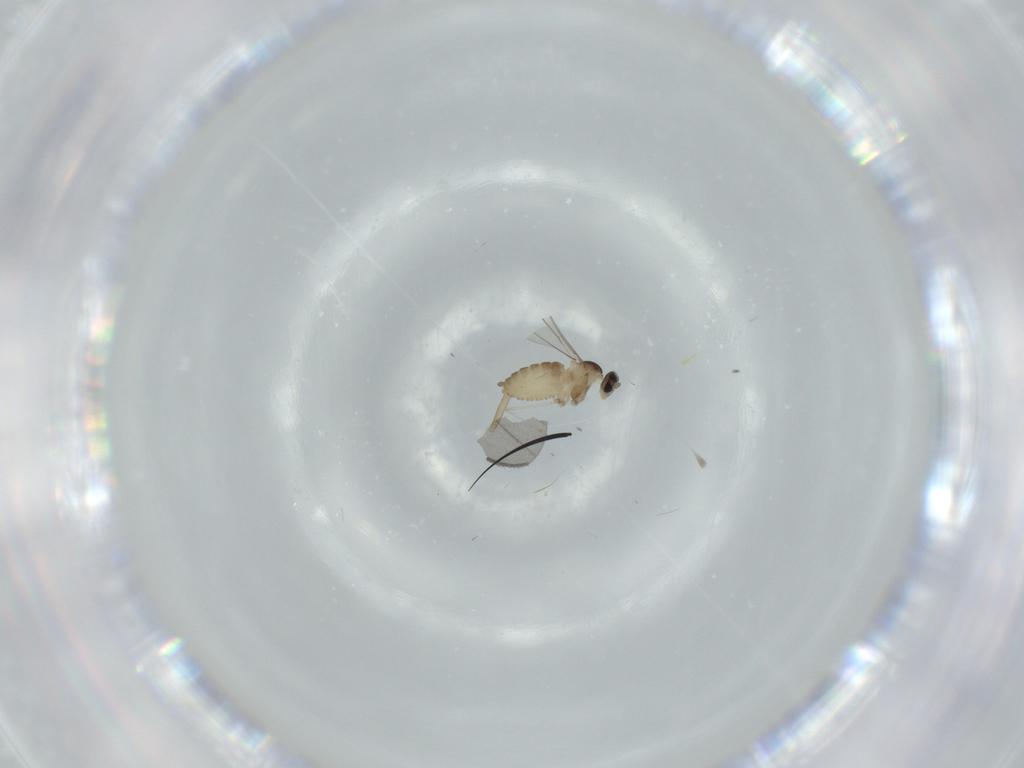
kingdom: Animalia
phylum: Arthropoda
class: Insecta
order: Diptera
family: Cecidomyiidae
